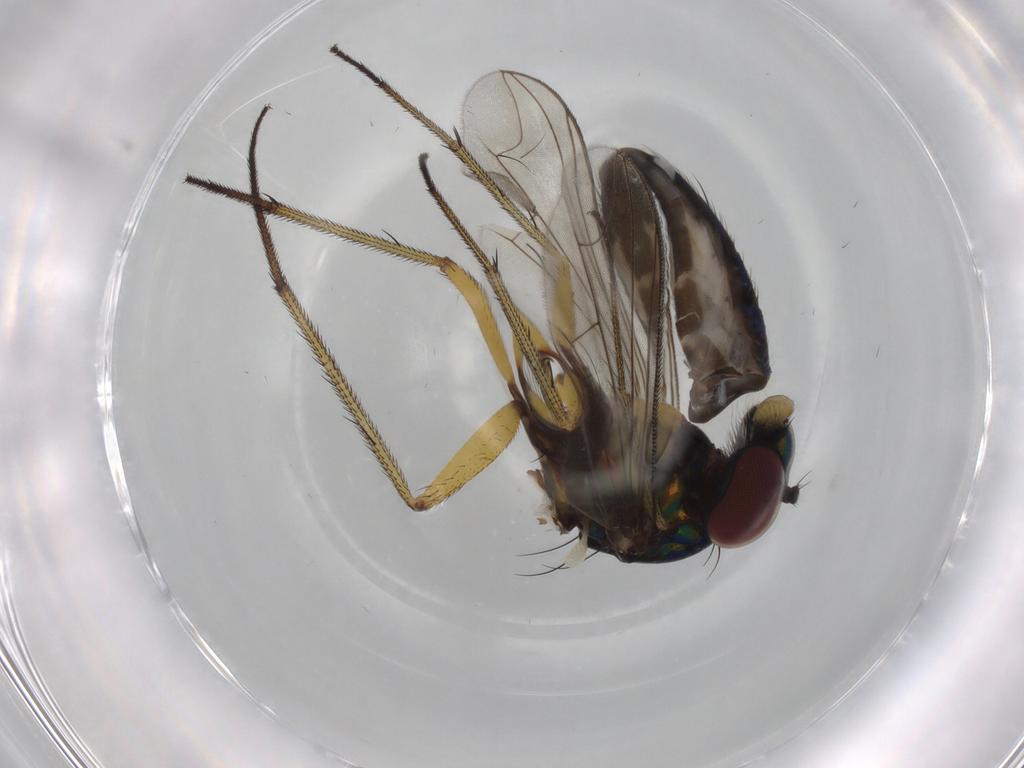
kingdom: Animalia
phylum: Arthropoda
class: Insecta
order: Diptera
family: Dolichopodidae
